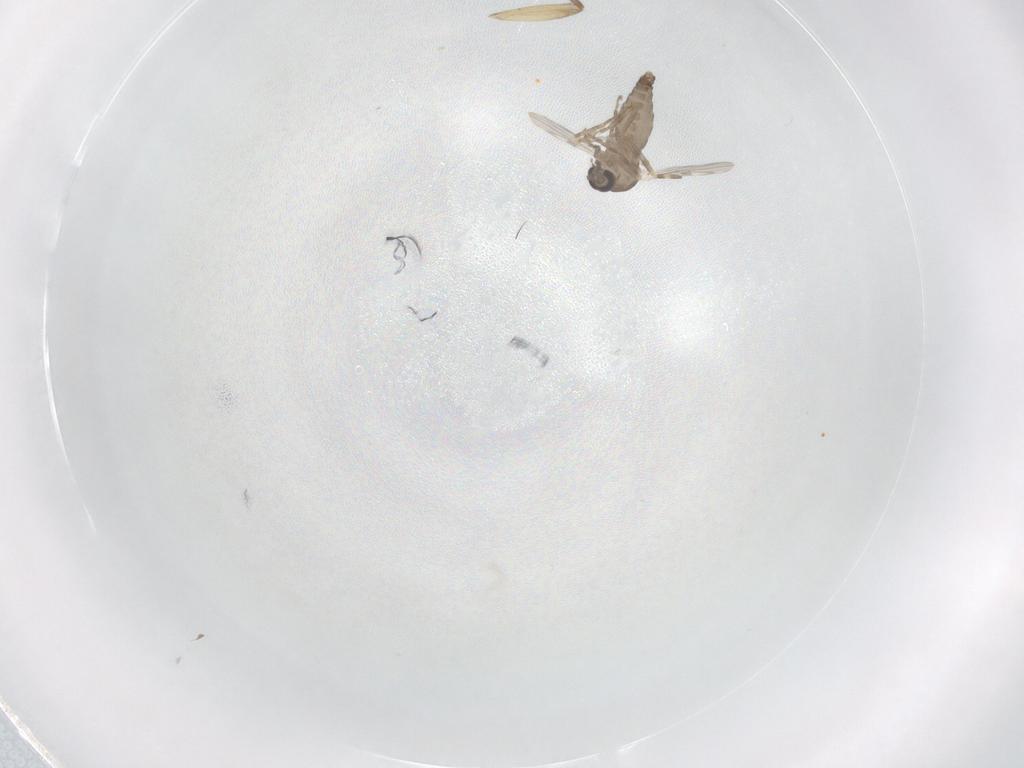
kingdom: Animalia
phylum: Arthropoda
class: Insecta
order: Diptera
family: Ceratopogonidae
